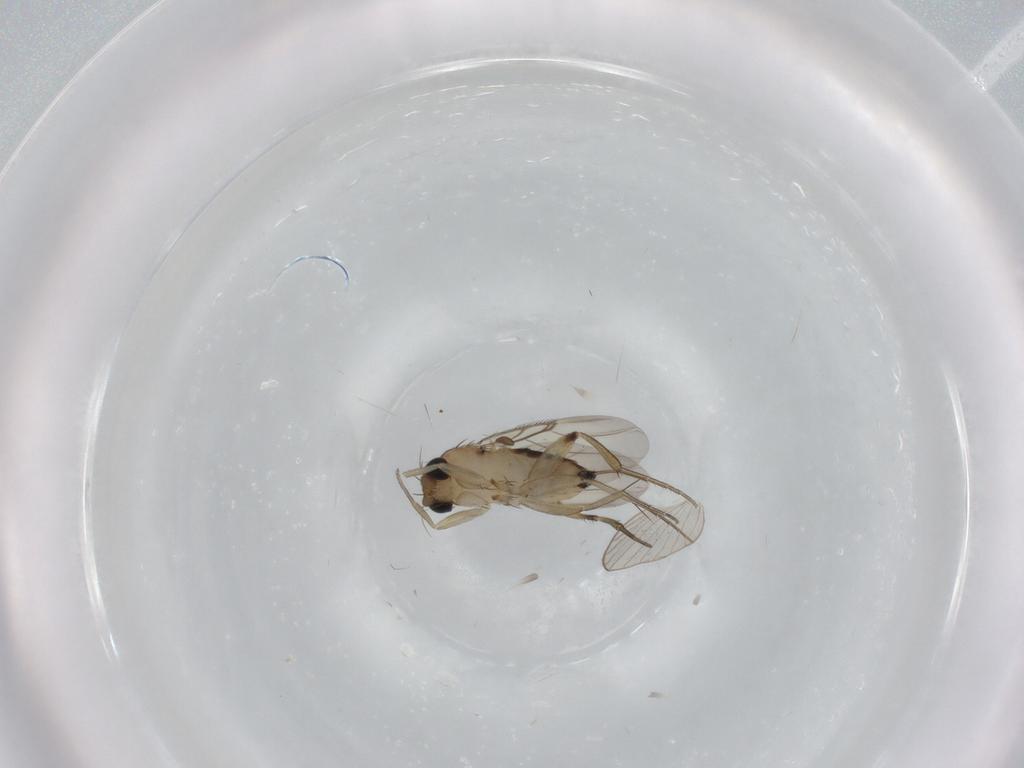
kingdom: Animalia
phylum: Arthropoda
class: Insecta
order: Diptera
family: Phoridae
